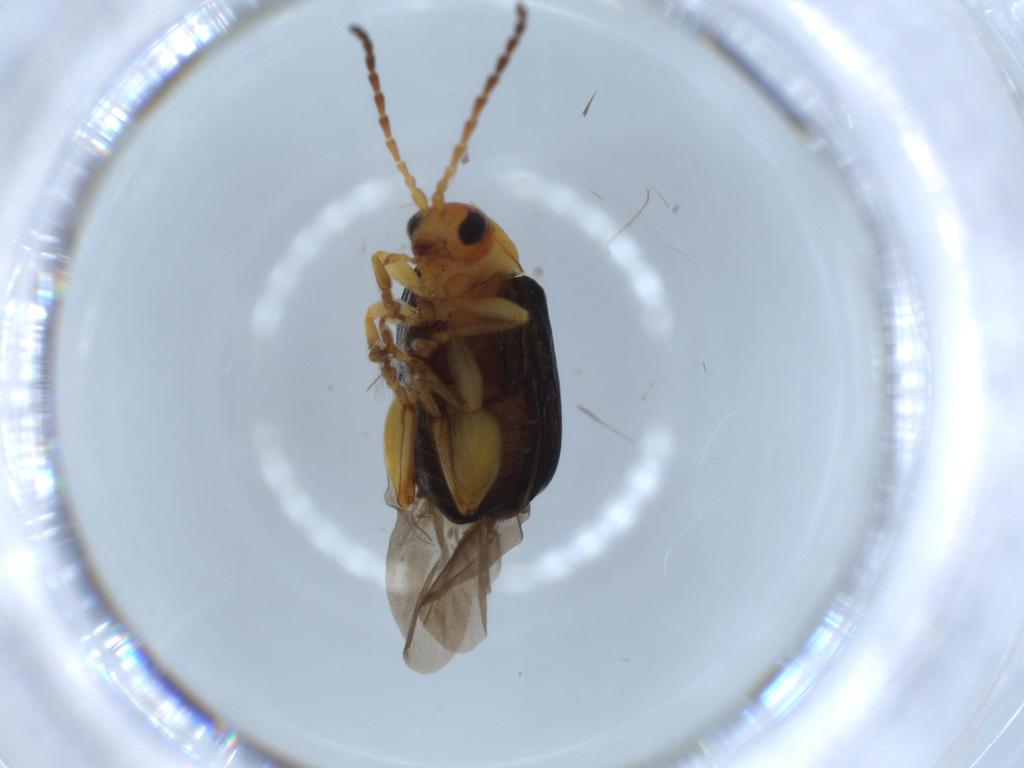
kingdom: Animalia
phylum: Arthropoda
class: Insecta
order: Coleoptera
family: Chrysomelidae
